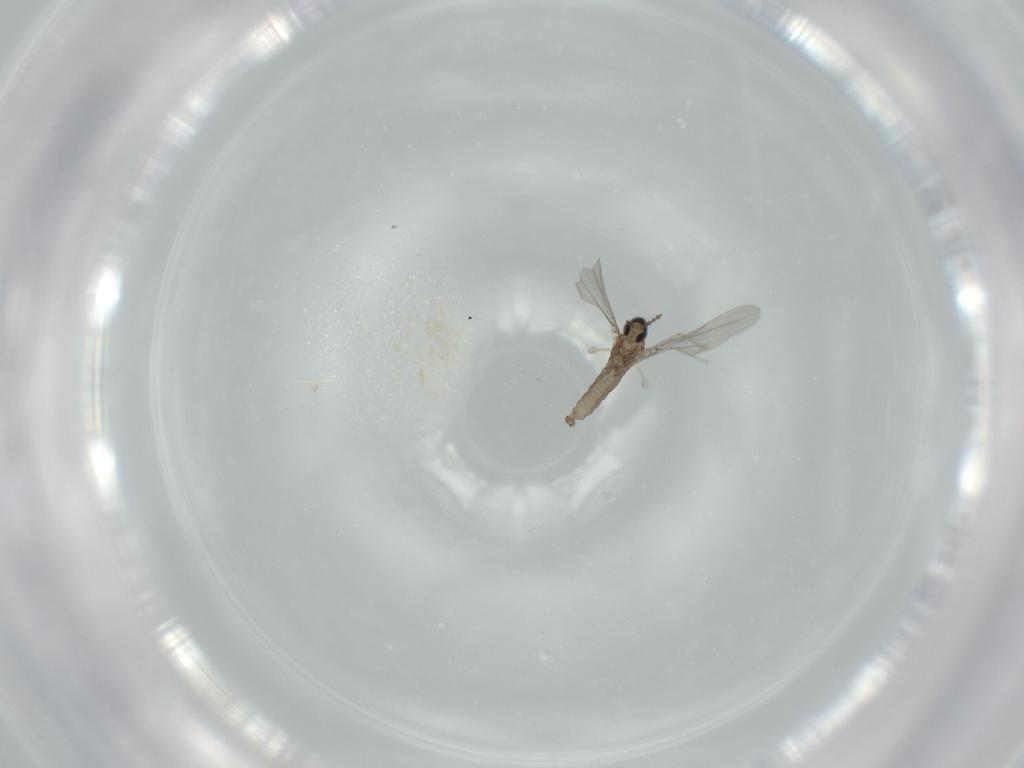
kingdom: Animalia
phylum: Arthropoda
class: Insecta
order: Diptera
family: Cecidomyiidae
